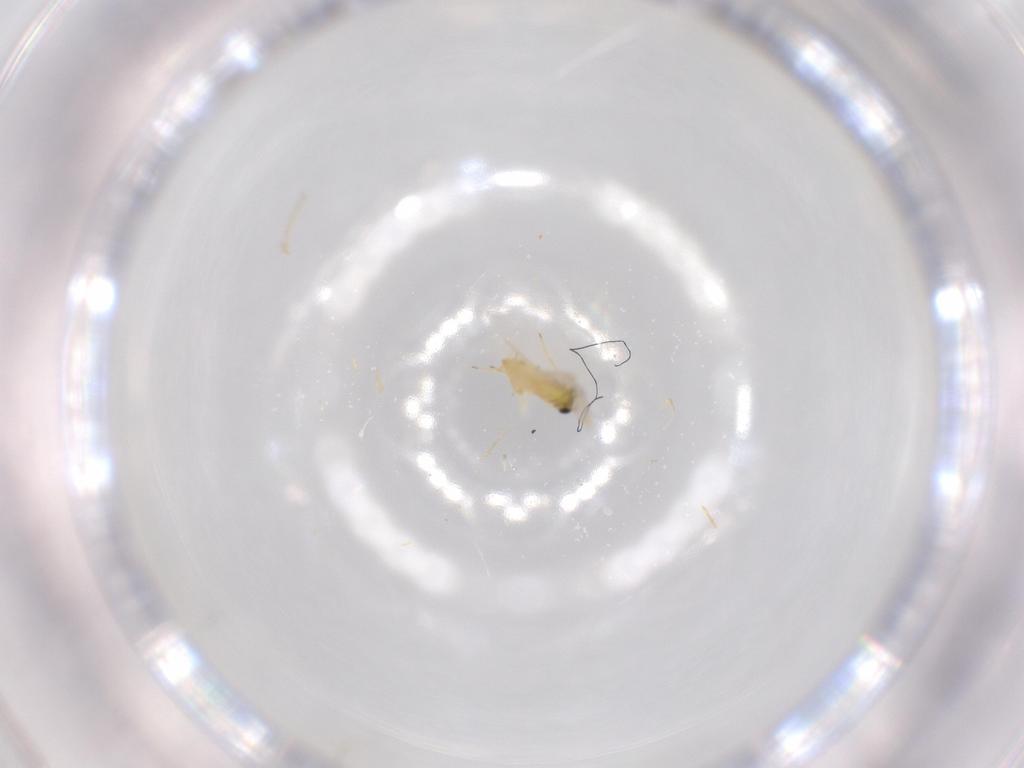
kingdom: Animalia
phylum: Arthropoda
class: Insecta
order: Hymenoptera
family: Trichogrammatidae
